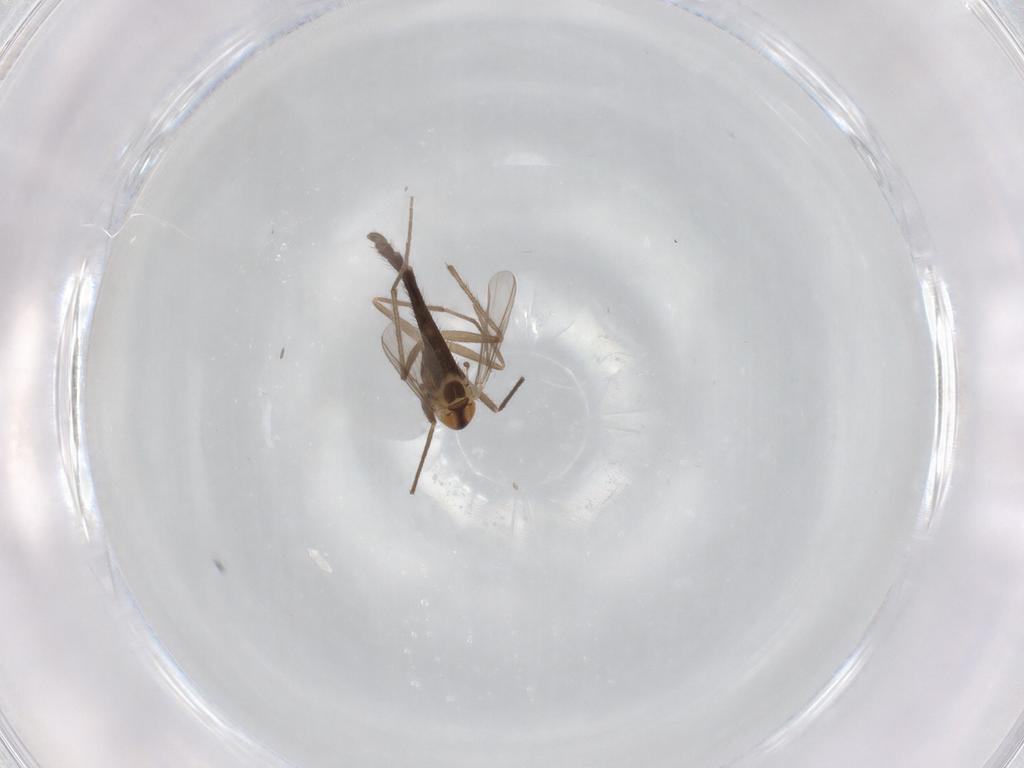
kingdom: Animalia
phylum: Arthropoda
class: Insecta
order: Diptera
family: Chironomidae
